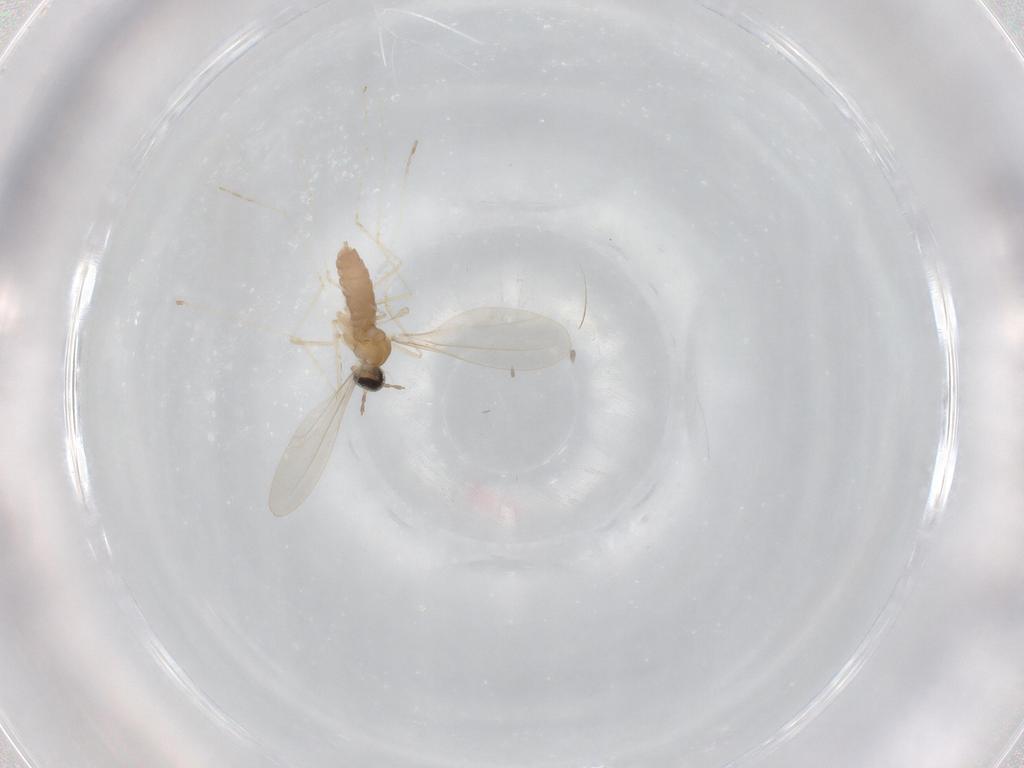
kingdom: Animalia
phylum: Arthropoda
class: Insecta
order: Diptera
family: Cecidomyiidae
